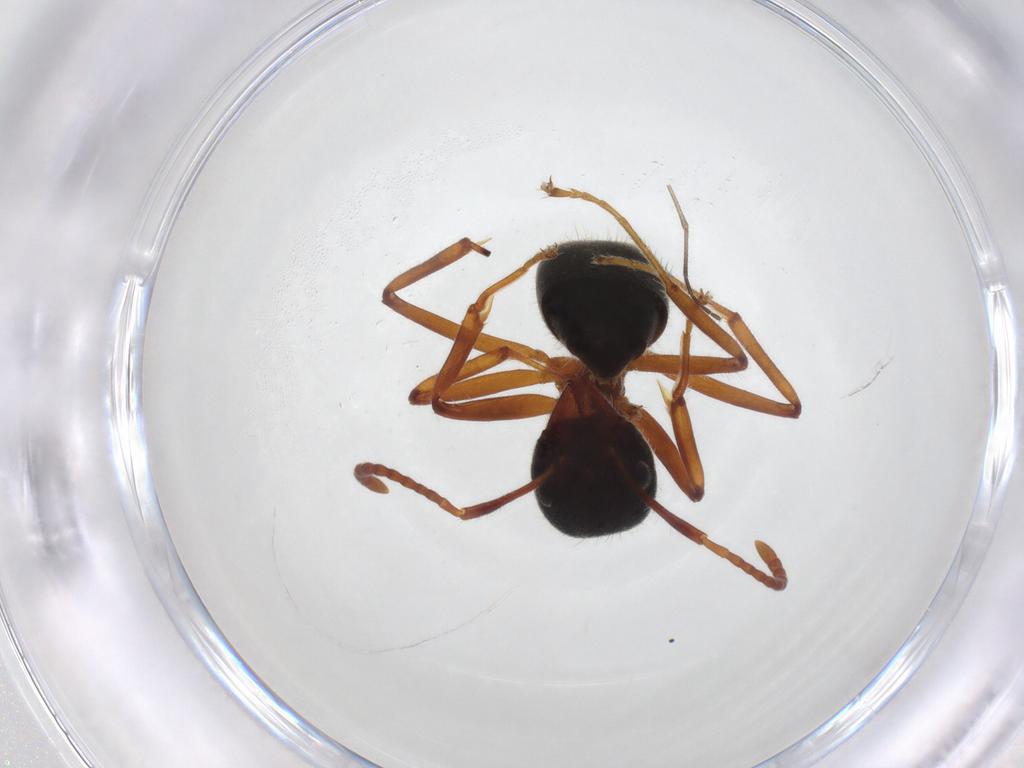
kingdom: Animalia
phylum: Arthropoda
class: Insecta
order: Hymenoptera
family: Formicidae
